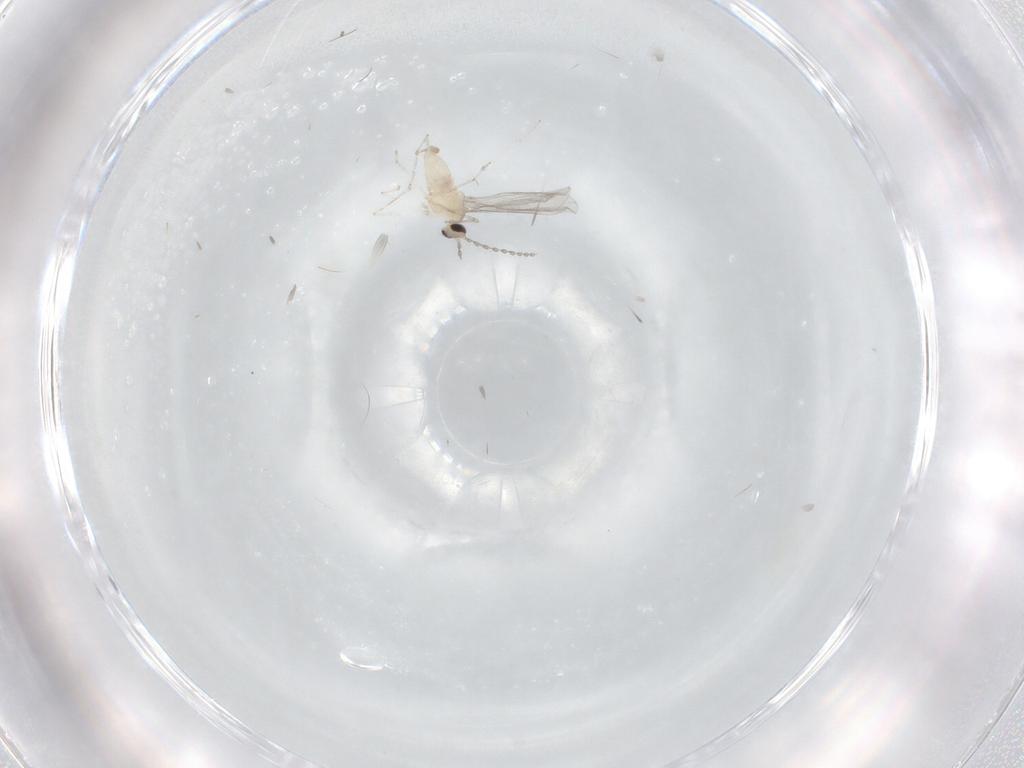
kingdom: Animalia
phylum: Arthropoda
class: Insecta
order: Diptera
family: Cecidomyiidae
